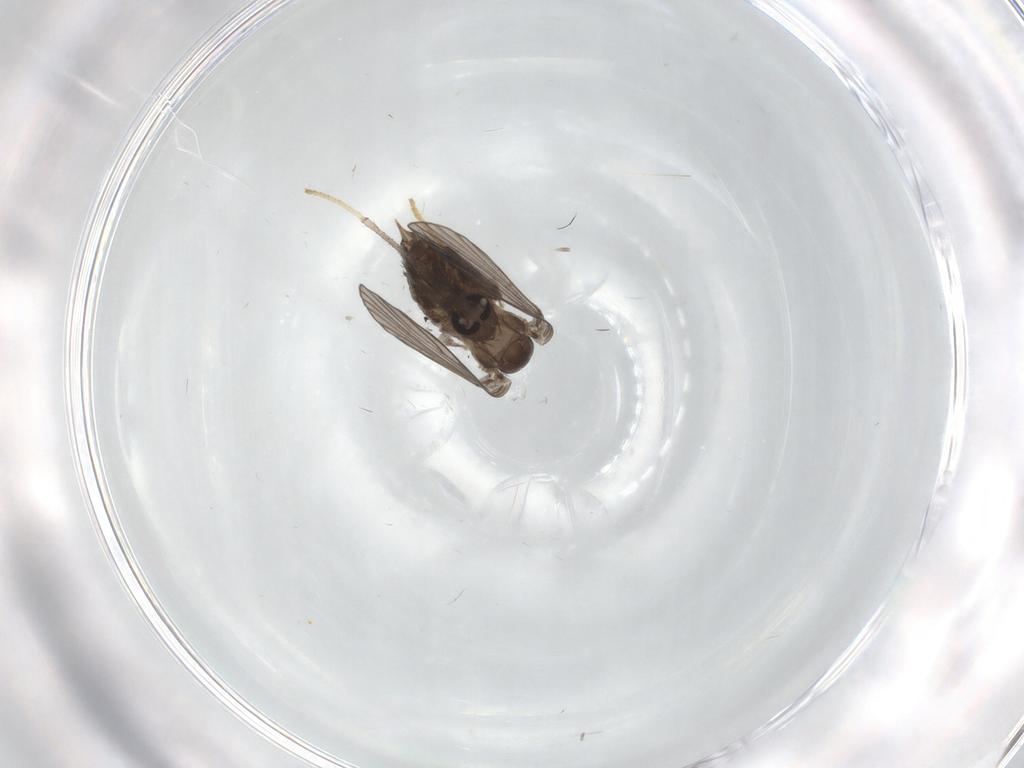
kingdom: Animalia
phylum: Arthropoda
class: Insecta
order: Diptera
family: Psychodidae
